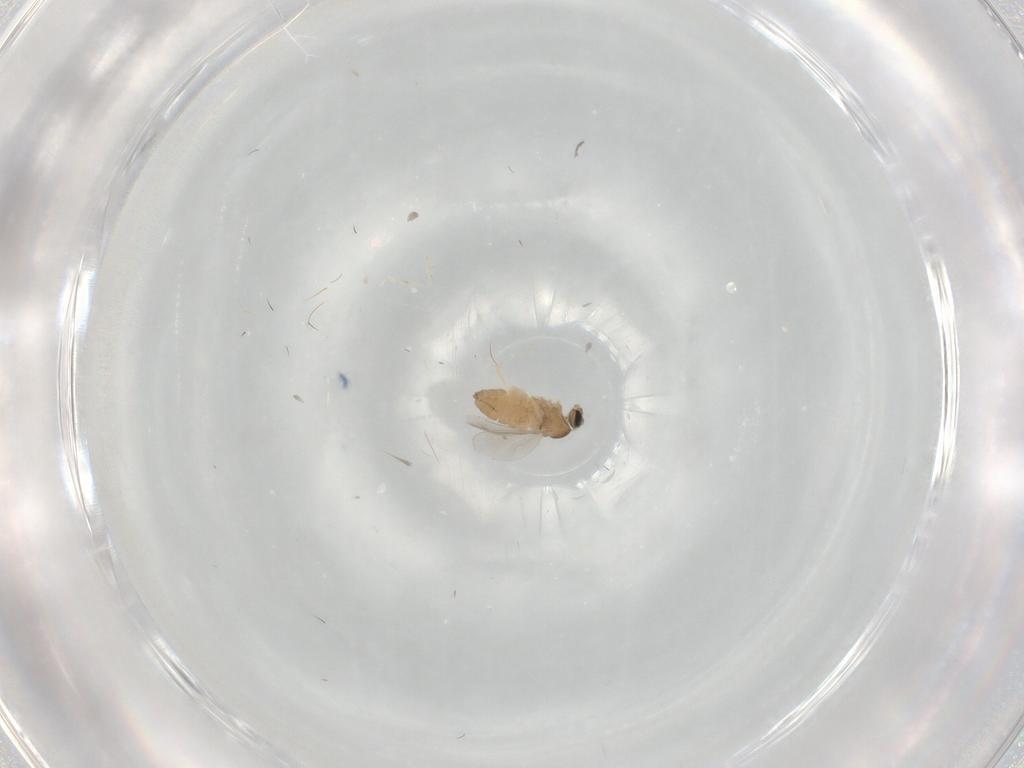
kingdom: Animalia
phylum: Arthropoda
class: Insecta
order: Diptera
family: Cecidomyiidae
